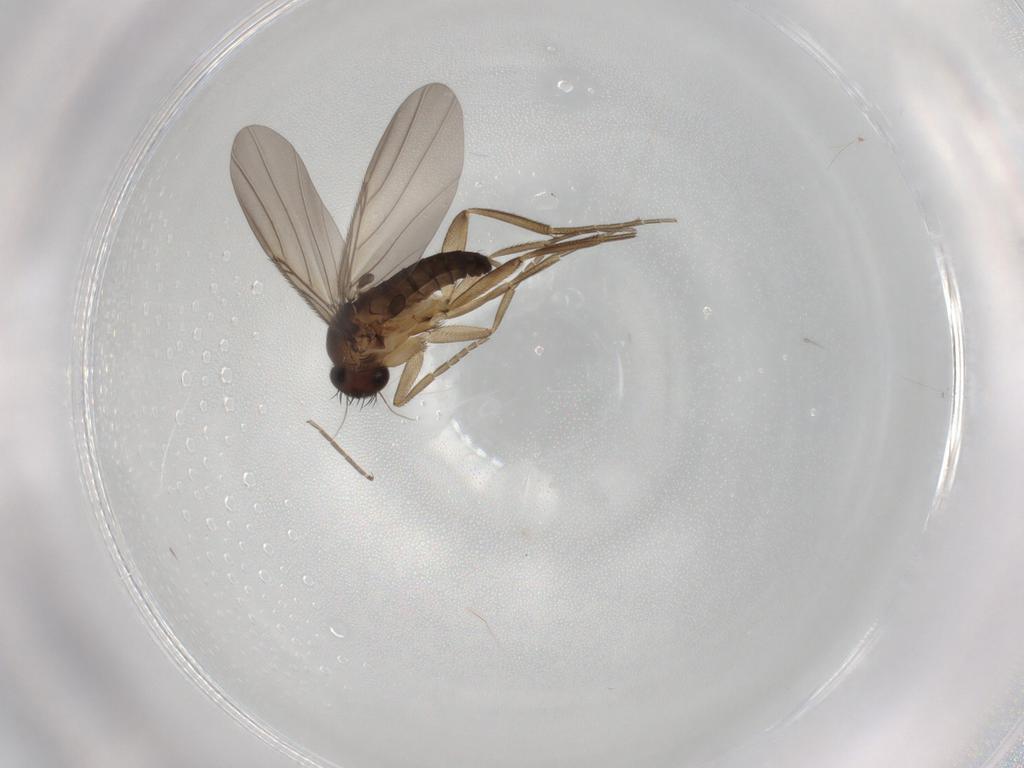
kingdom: Animalia
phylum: Arthropoda
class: Insecta
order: Diptera
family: Phoridae
